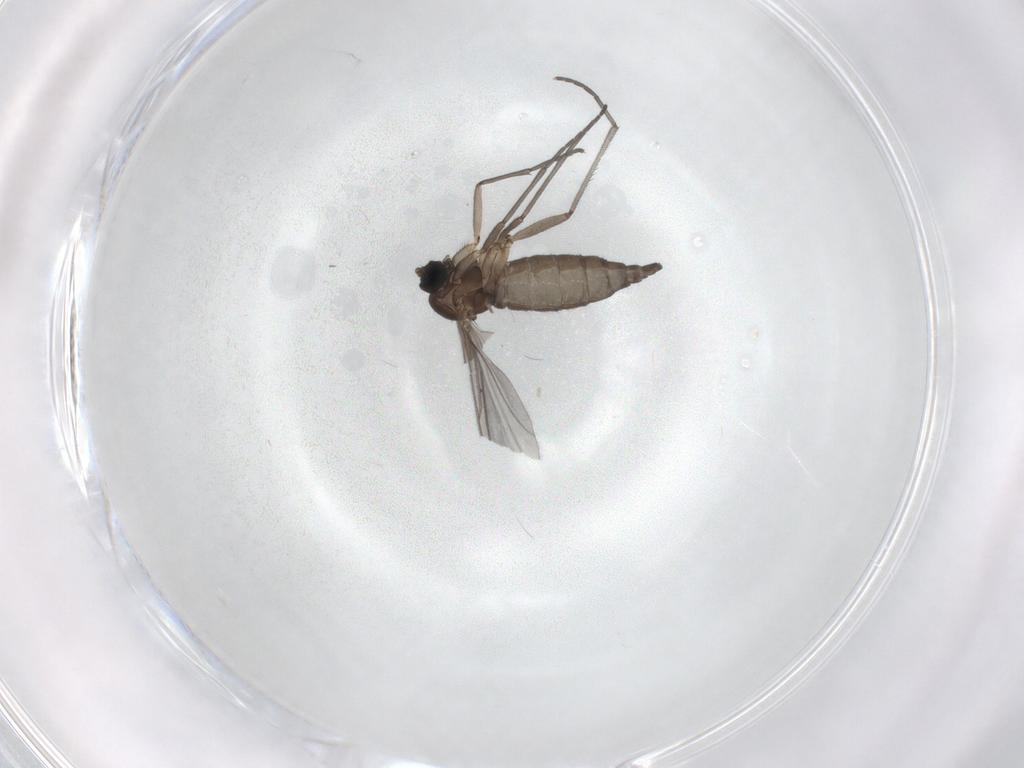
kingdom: Animalia
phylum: Arthropoda
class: Insecta
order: Diptera
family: Sciaridae
